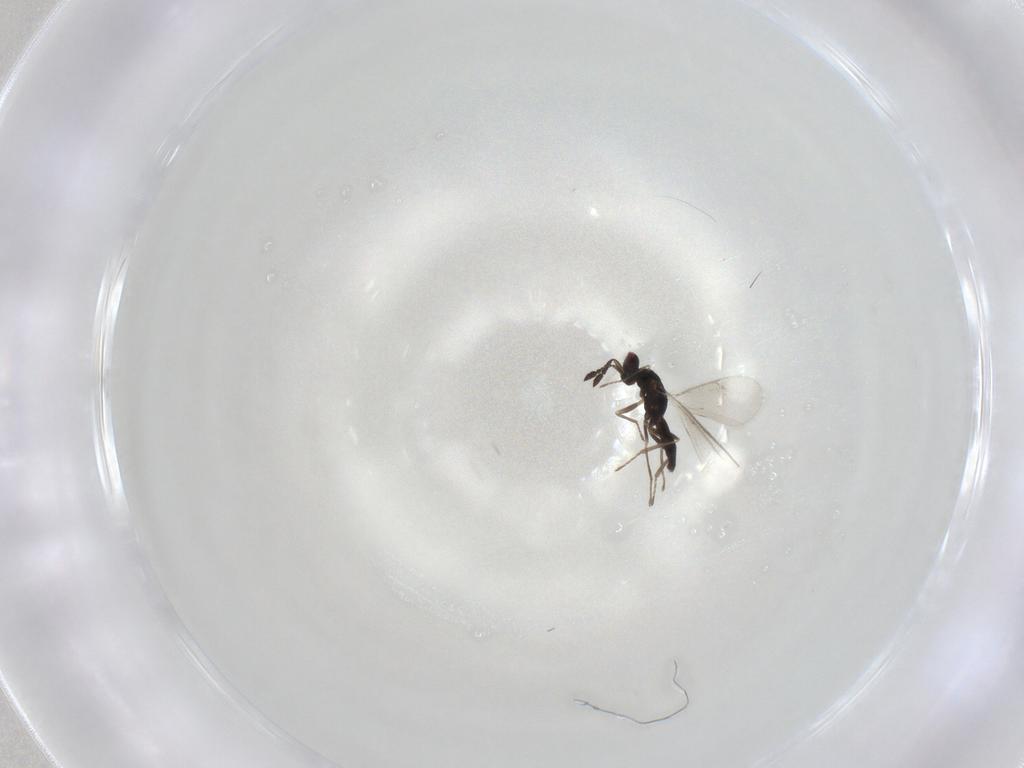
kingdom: Animalia
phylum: Arthropoda
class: Insecta
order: Hymenoptera
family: Eulophidae
